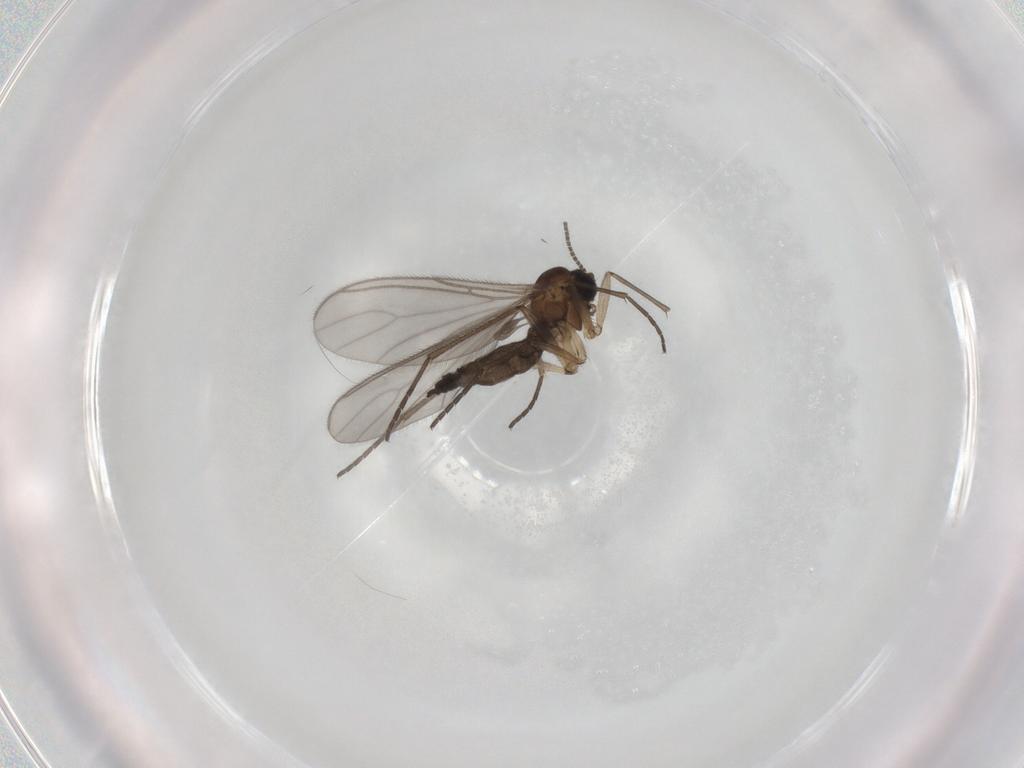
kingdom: Animalia
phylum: Arthropoda
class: Insecta
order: Diptera
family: Sciaridae
